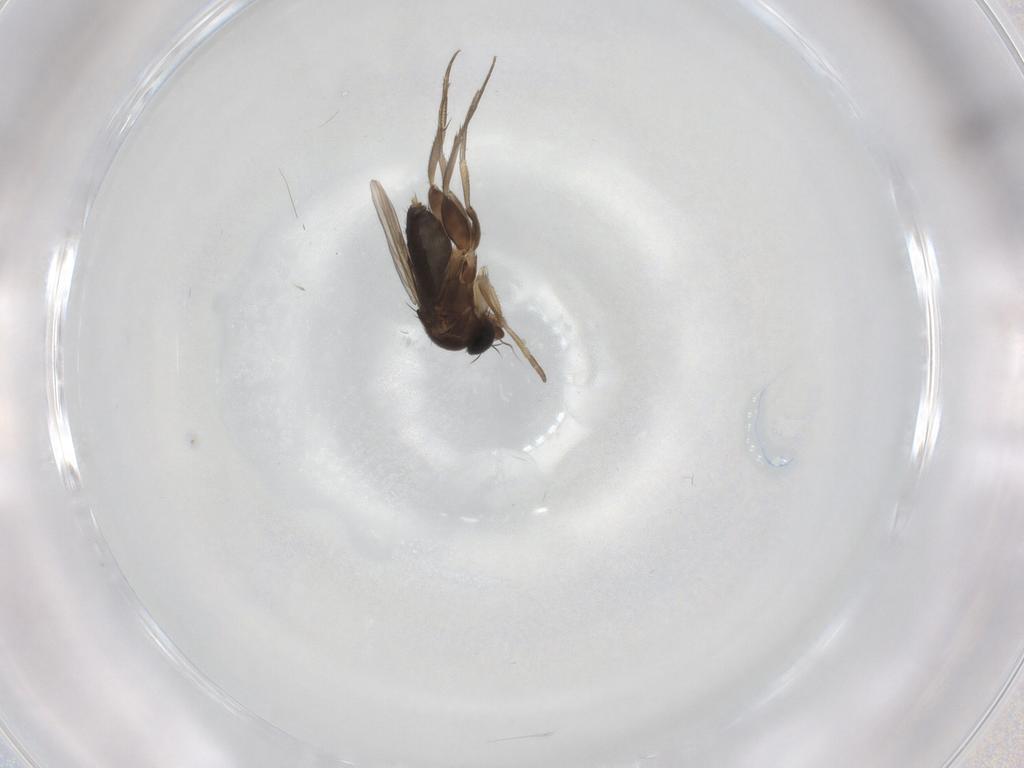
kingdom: Animalia
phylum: Arthropoda
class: Insecta
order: Diptera
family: Phoridae
